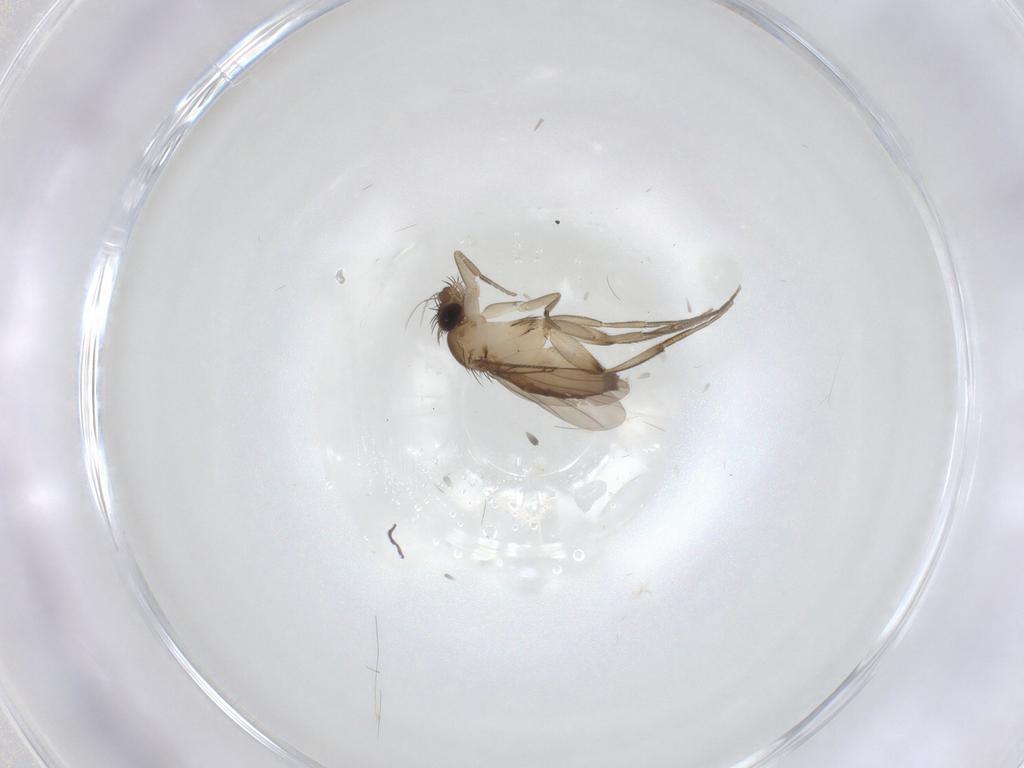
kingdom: Animalia
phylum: Arthropoda
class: Insecta
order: Diptera
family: Phoridae
